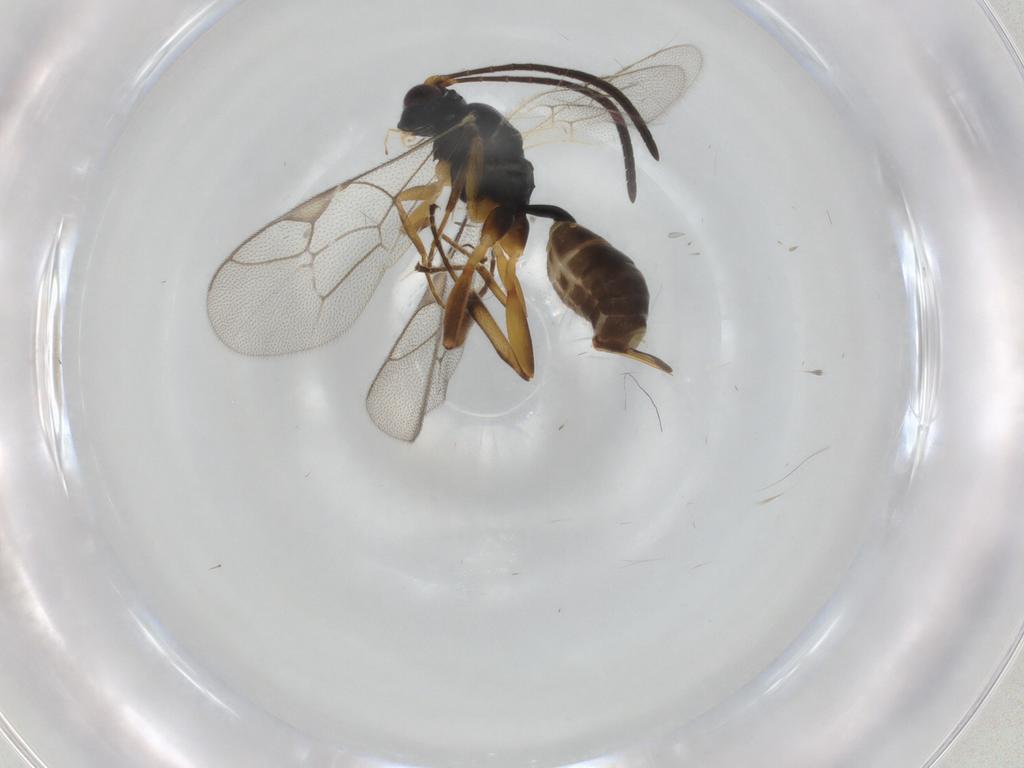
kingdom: Animalia
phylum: Arthropoda
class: Insecta
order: Hymenoptera
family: Ichneumonidae
